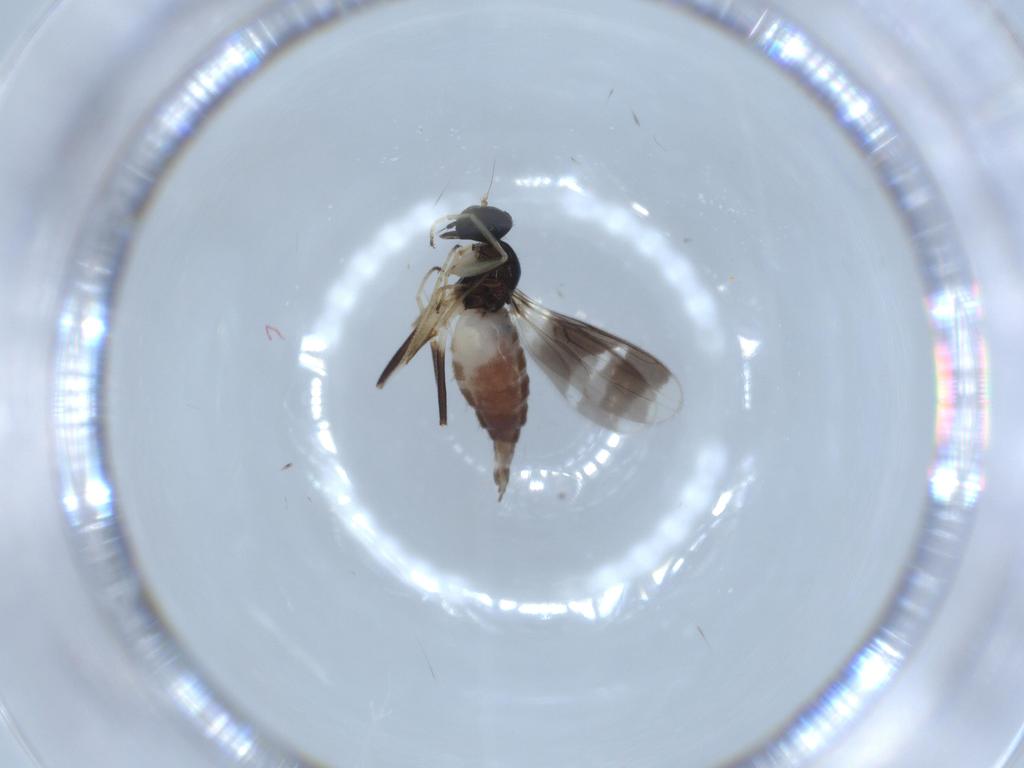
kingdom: Animalia
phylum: Arthropoda
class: Insecta
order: Diptera
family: Hybotidae
